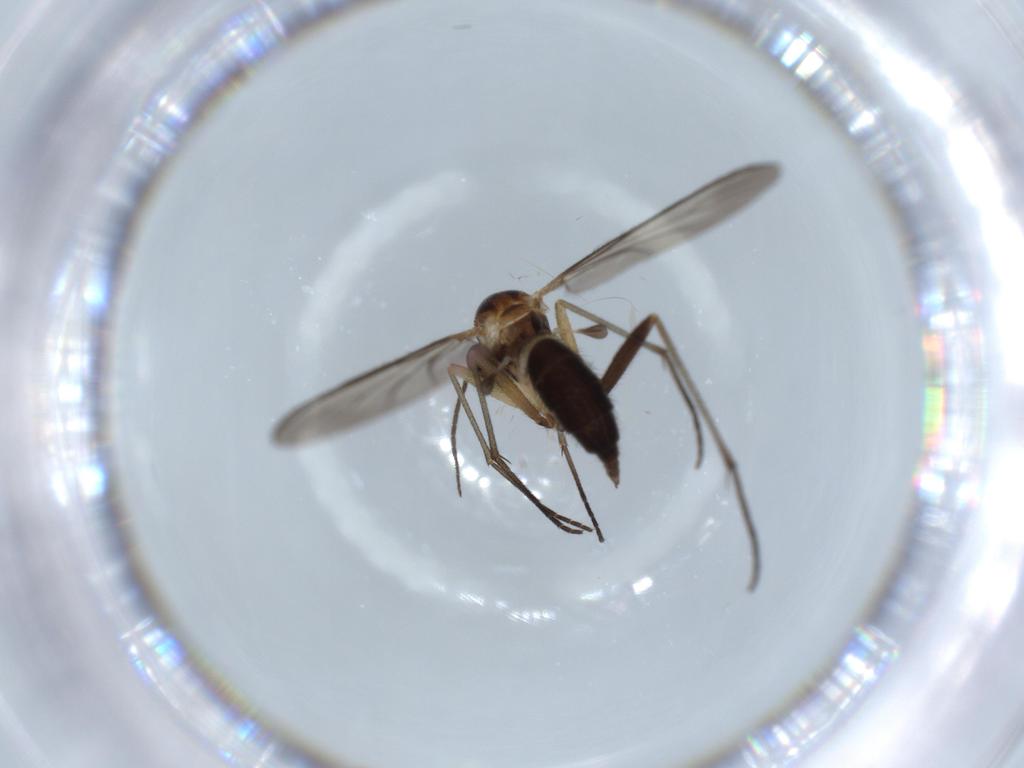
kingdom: Animalia
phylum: Arthropoda
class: Insecta
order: Diptera
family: Sciaridae
